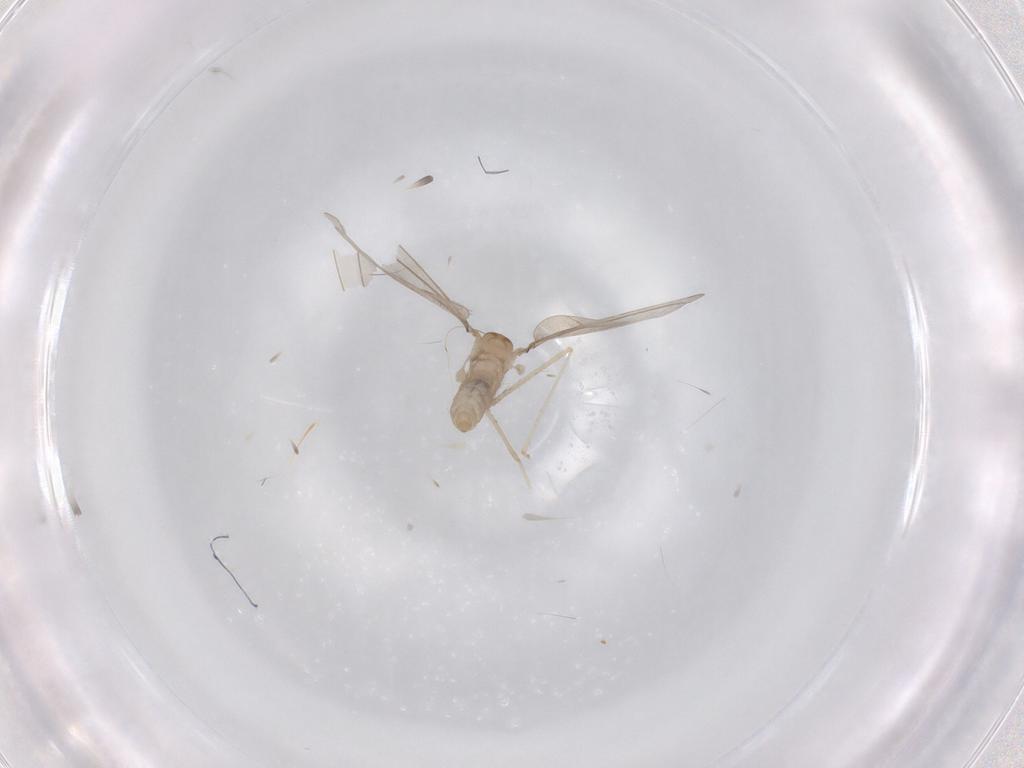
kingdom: Animalia
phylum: Arthropoda
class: Insecta
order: Diptera
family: Cecidomyiidae
